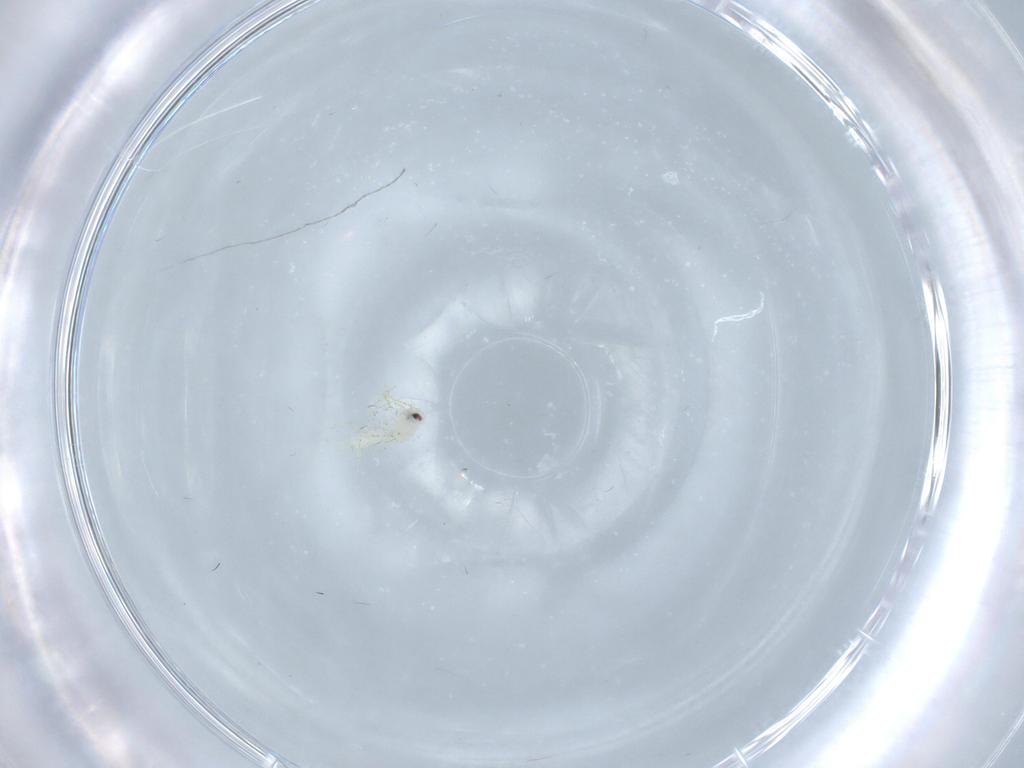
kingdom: Animalia
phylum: Arthropoda
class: Insecta
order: Hemiptera
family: Aleyrodidae
